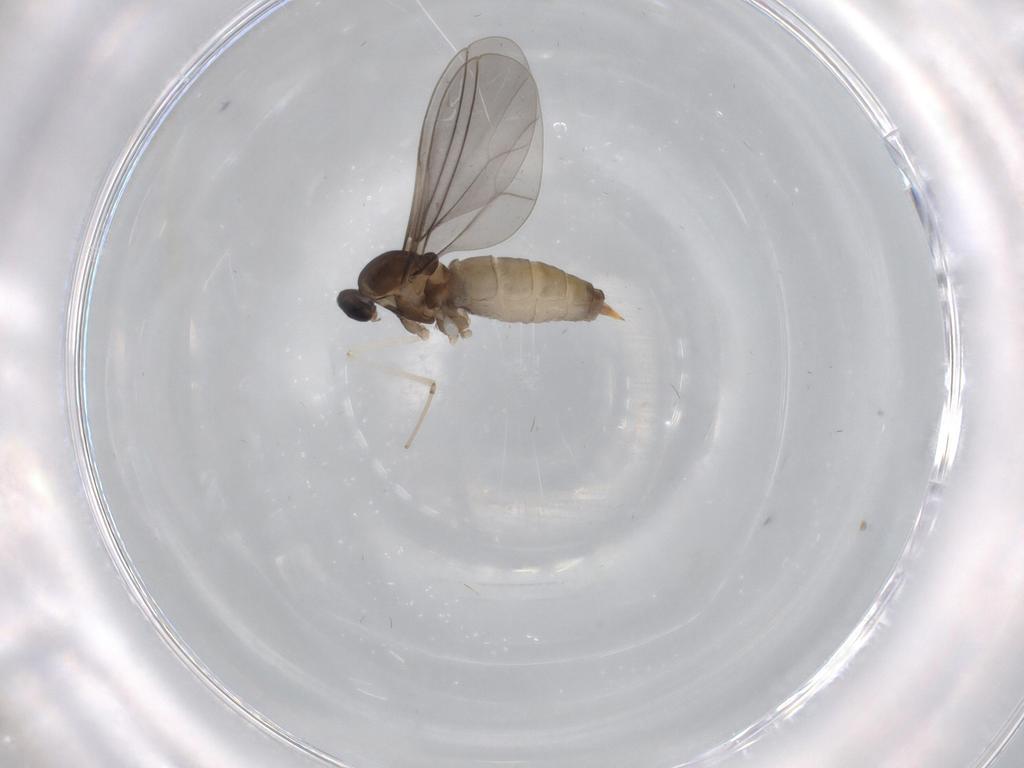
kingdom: Animalia
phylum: Arthropoda
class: Insecta
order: Diptera
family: Cecidomyiidae
